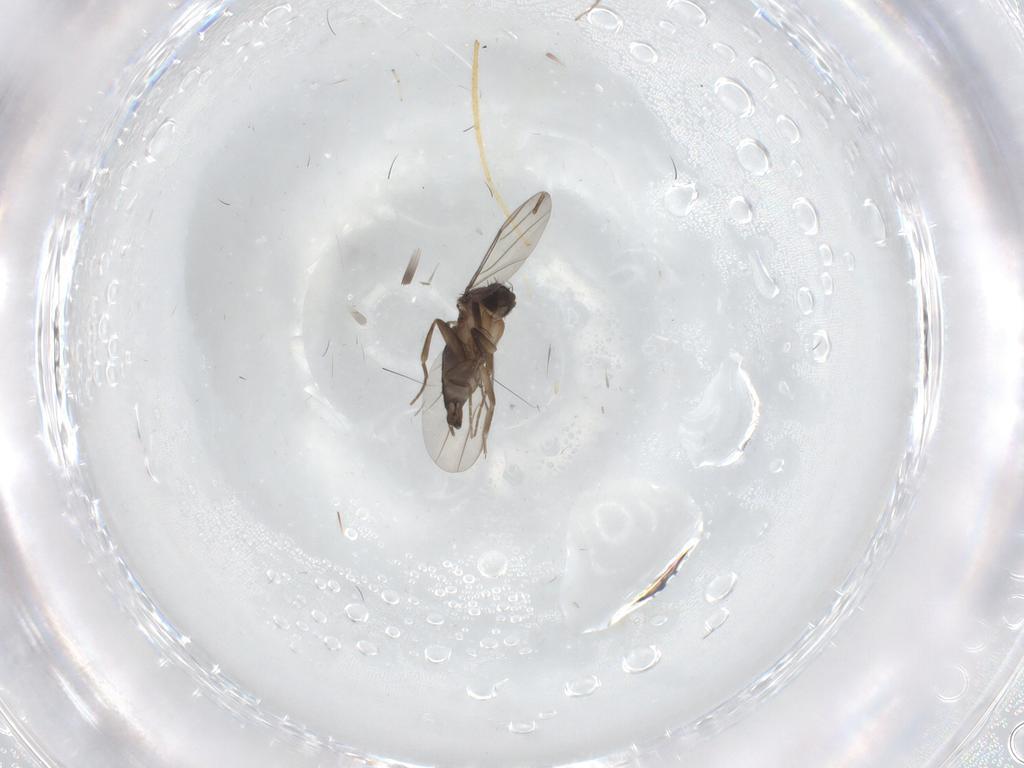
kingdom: Animalia
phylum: Arthropoda
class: Insecta
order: Diptera
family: Phoridae
